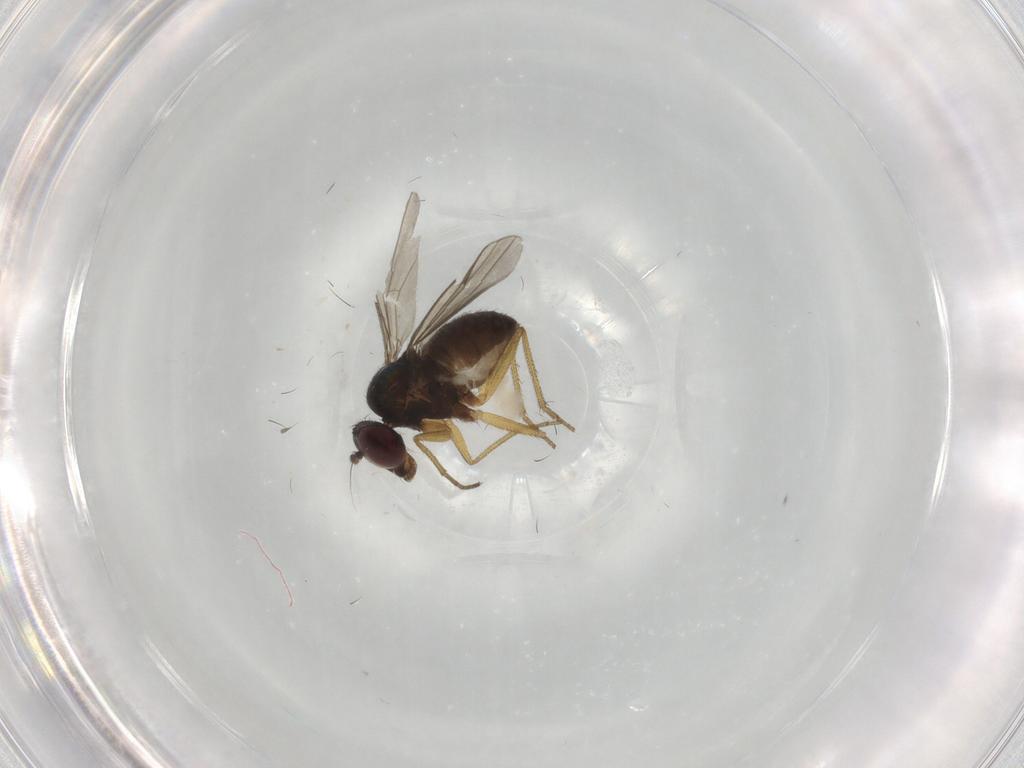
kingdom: Animalia
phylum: Arthropoda
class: Insecta
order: Diptera
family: Dolichopodidae
